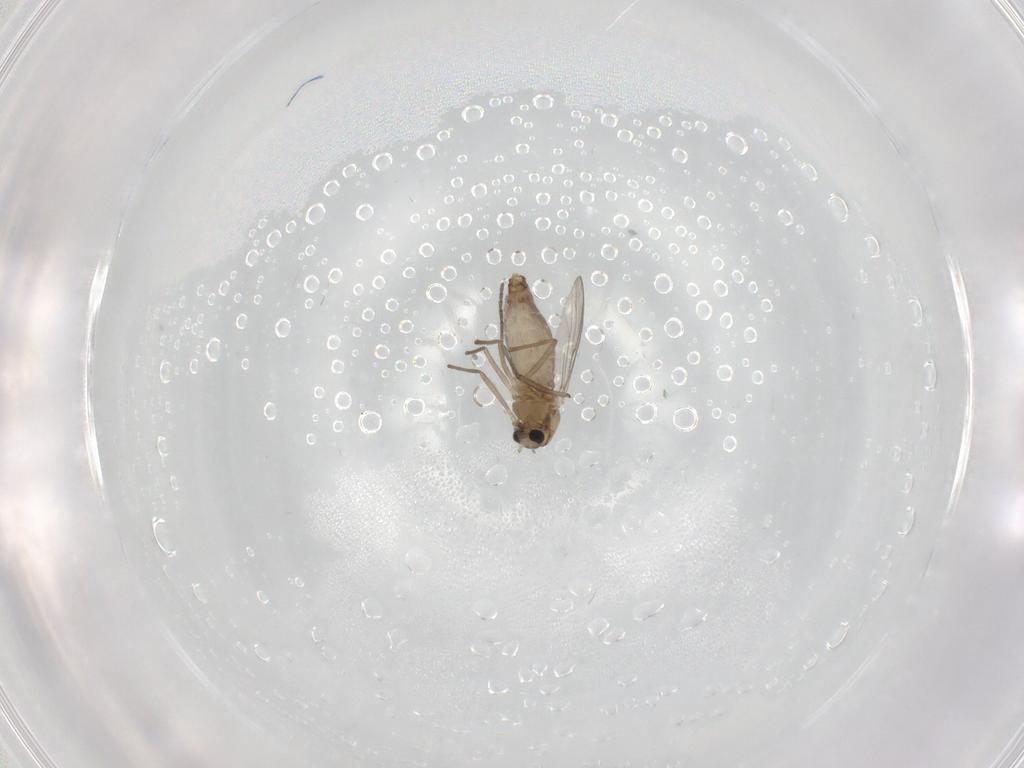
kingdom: Animalia
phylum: Arthropoda
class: Insecta
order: Diptera
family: Chironomidae
